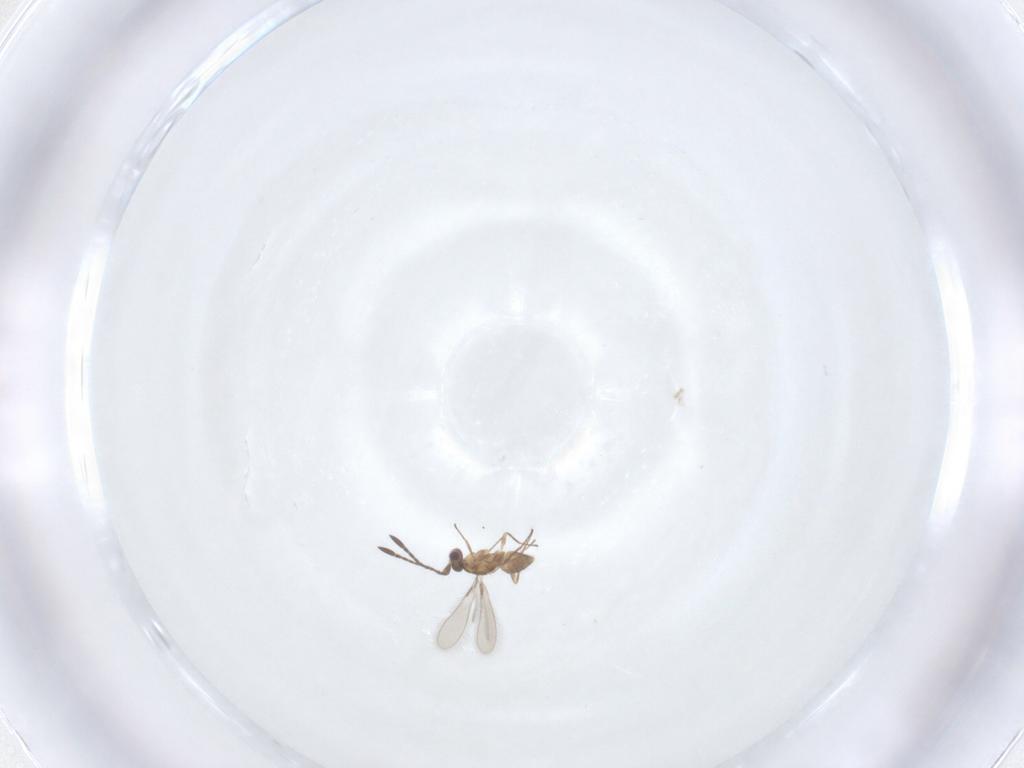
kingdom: Animalia
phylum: Arthropoda
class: Insecta
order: Hymenoptera
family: Mymaridae
